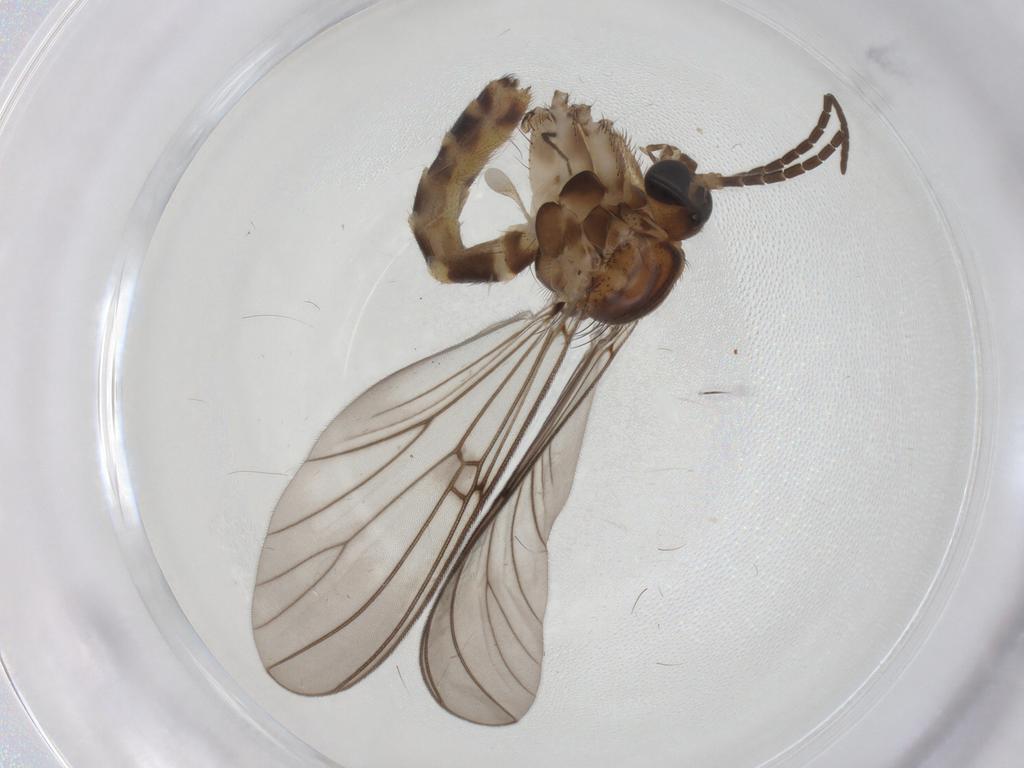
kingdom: Animalia
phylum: Arthropoda
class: Insecta
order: Diptera
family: Mycetophilidae
